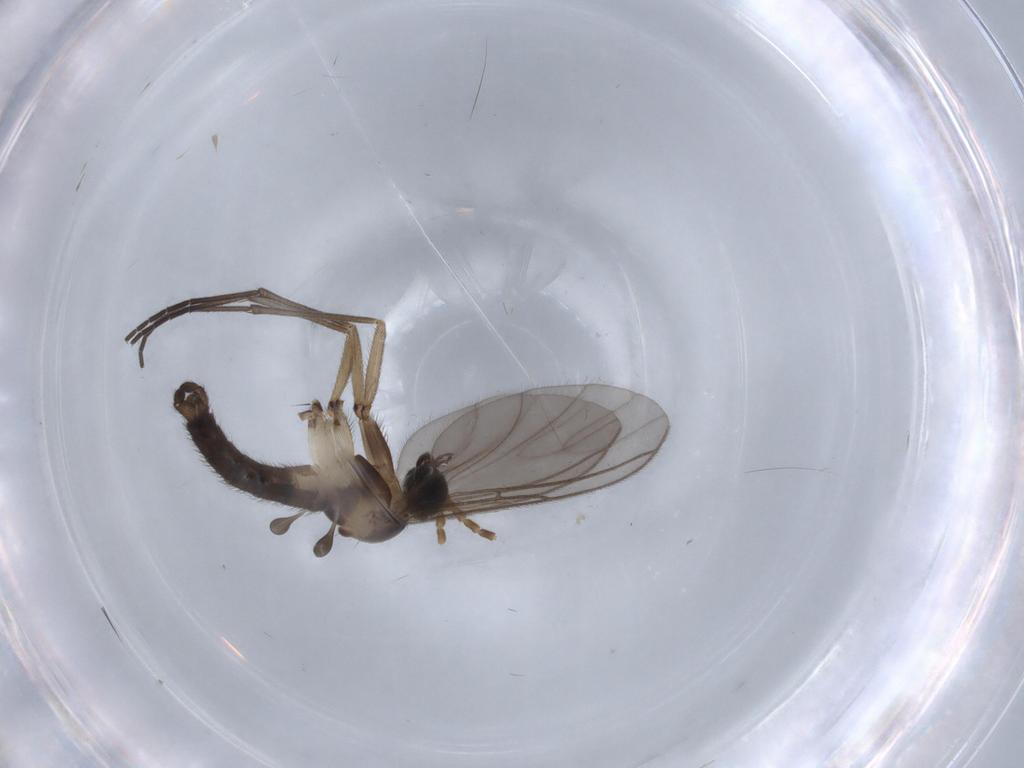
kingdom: Animalia
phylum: Arthropoda
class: Insecta
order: Diptera
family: Sciaridae
